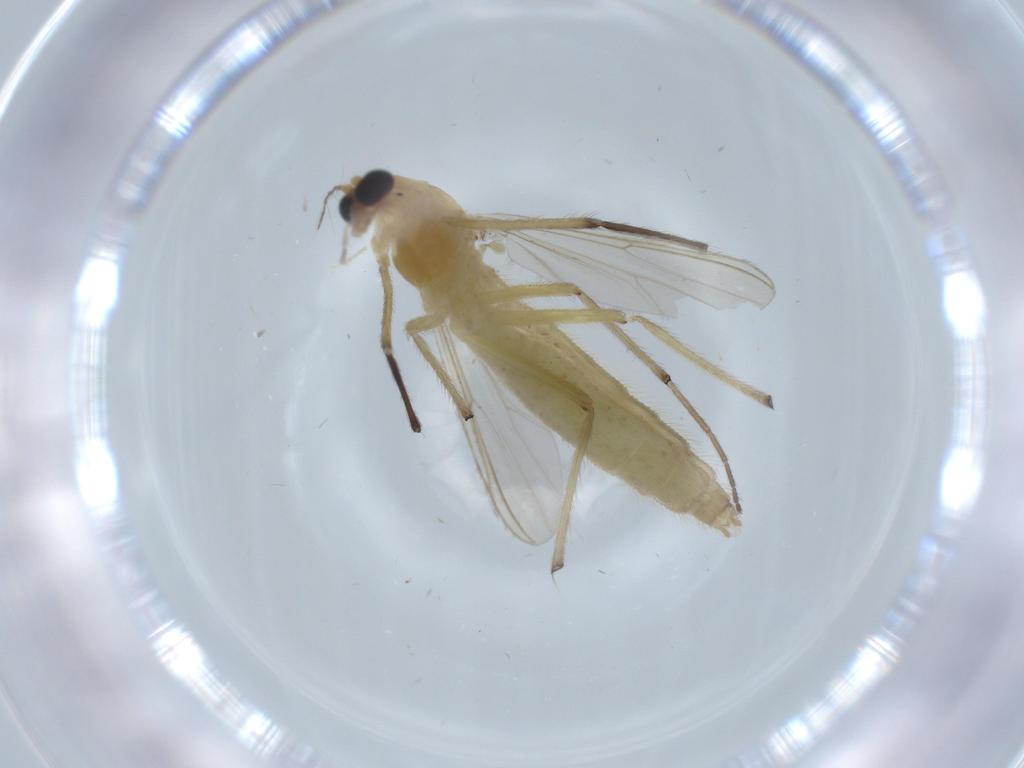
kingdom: Animalia
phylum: Arthropoda
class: Insecta
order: Diptera
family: Chironomidae
